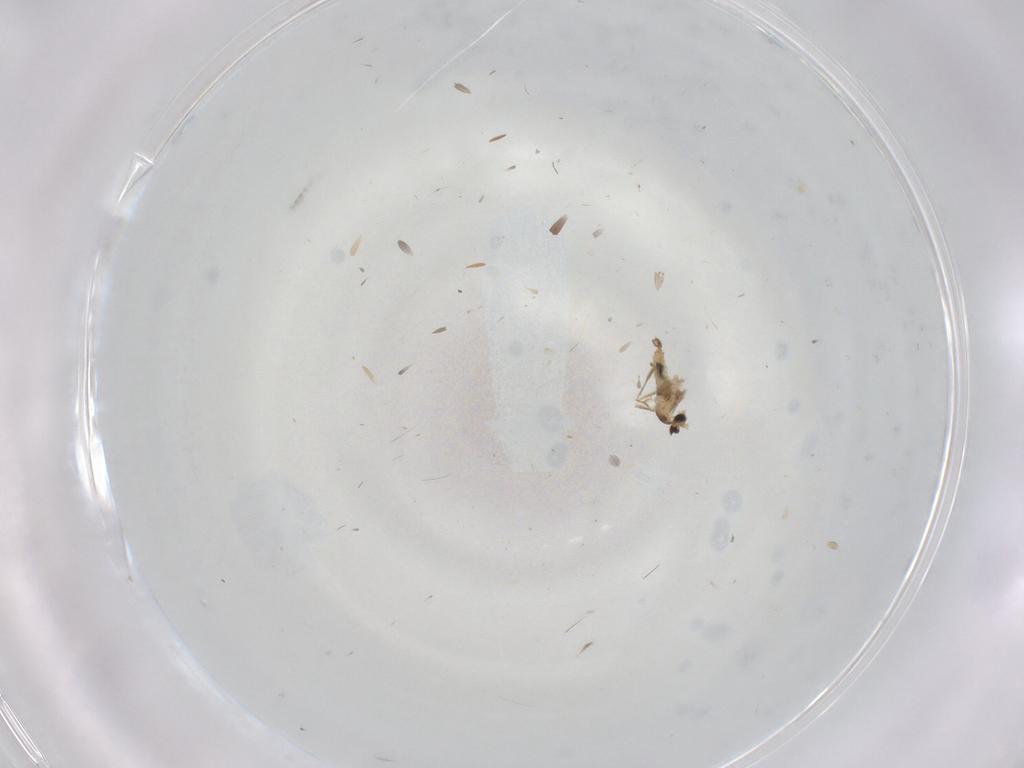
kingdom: Animalia
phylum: Arthropoda
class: Insecta
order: Diptera
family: Cecidomyiidae
